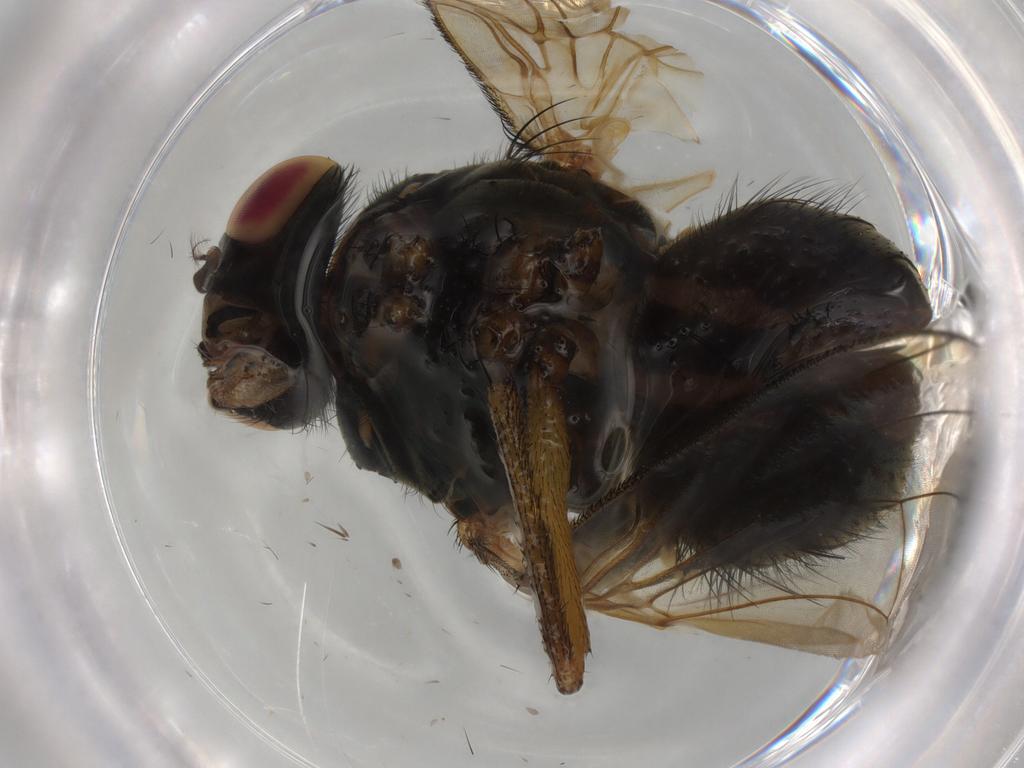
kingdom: Animalia
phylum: Arthropoda
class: Insecta
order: Diptera
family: Muscidae
